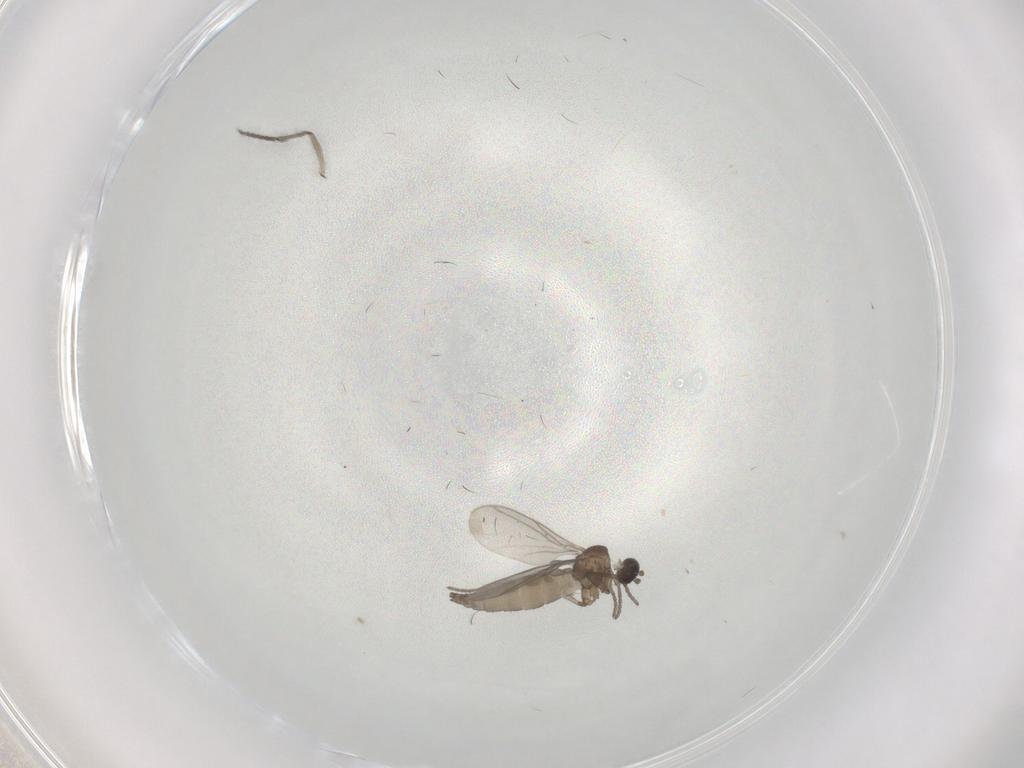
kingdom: Animalia
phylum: Arthropoda
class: Insecta
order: Diptera
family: Sciaridae
